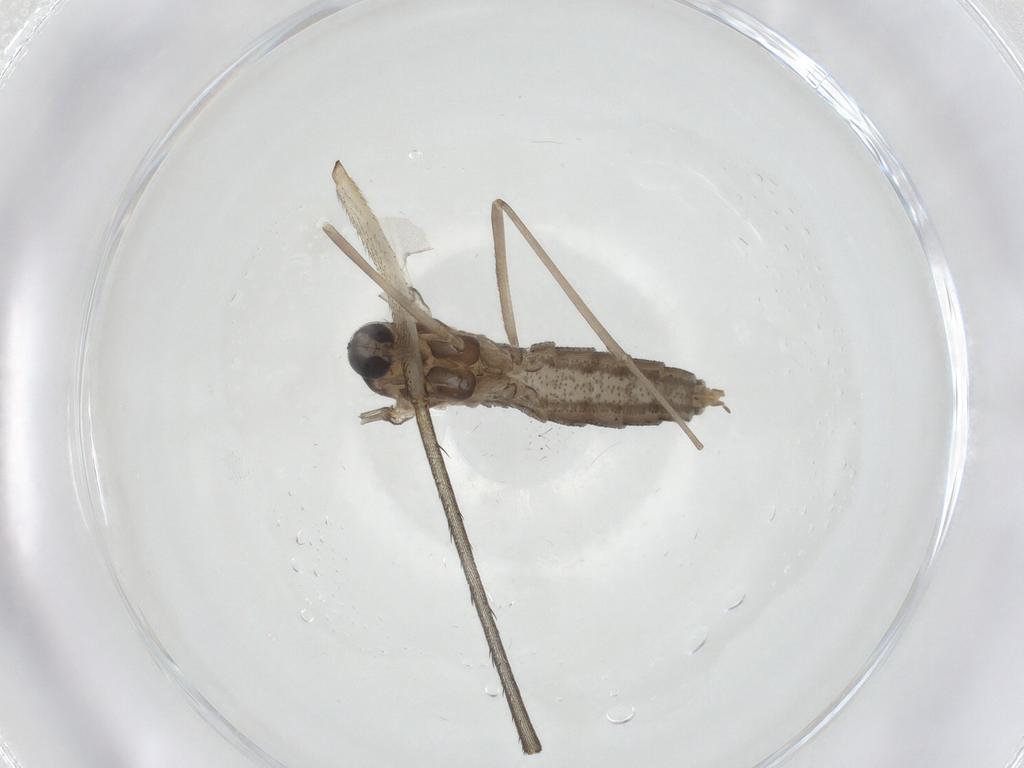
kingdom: Animalia
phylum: Arthropoda
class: Insecta
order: Diptera
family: Mycetophilidae
